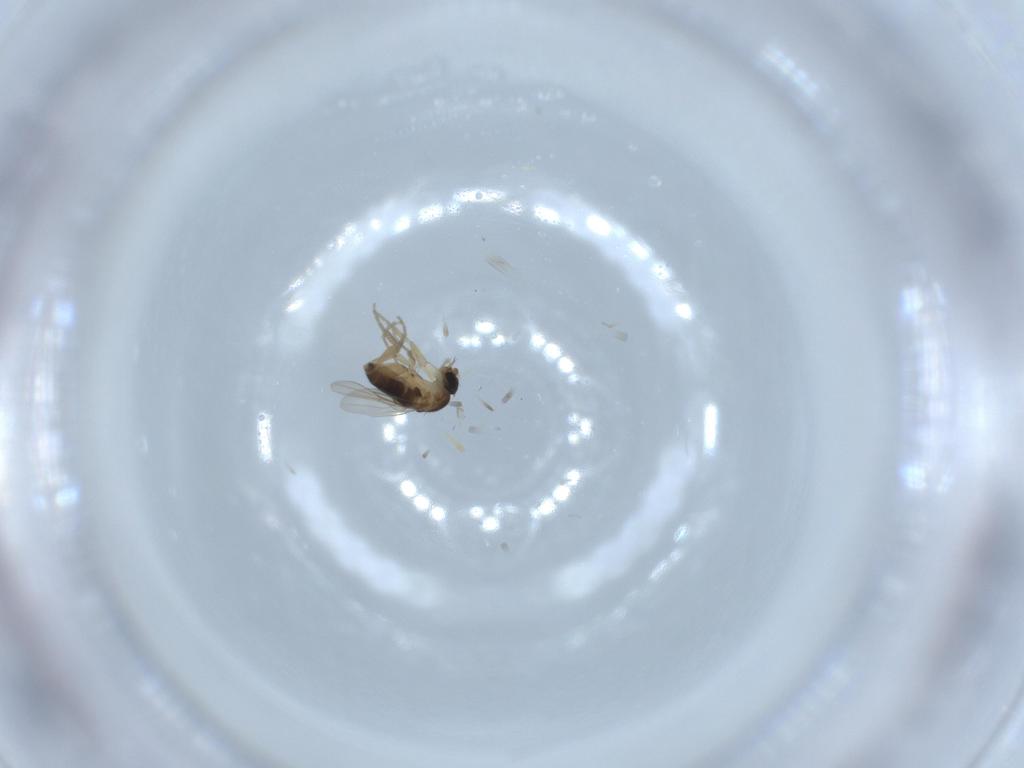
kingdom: Animalia
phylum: Arthropoda
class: Insecta
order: Diptera
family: Phoridae
